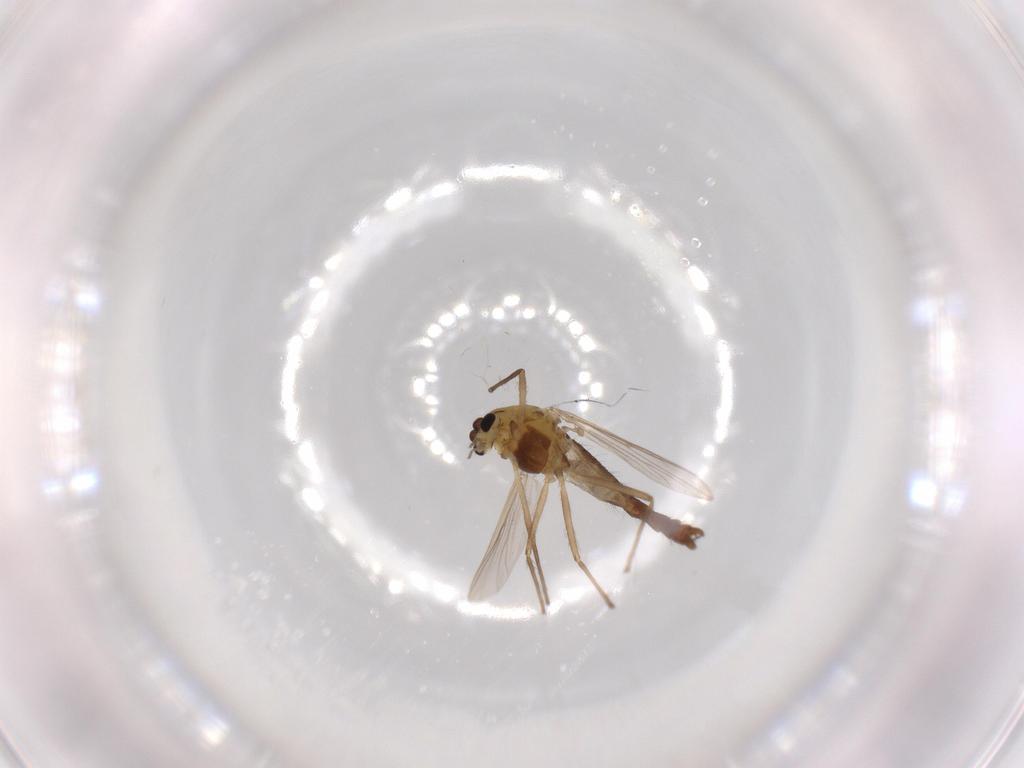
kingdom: Animalia
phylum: Arthropoda
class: Insecta
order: Diptera
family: Chironomidae
